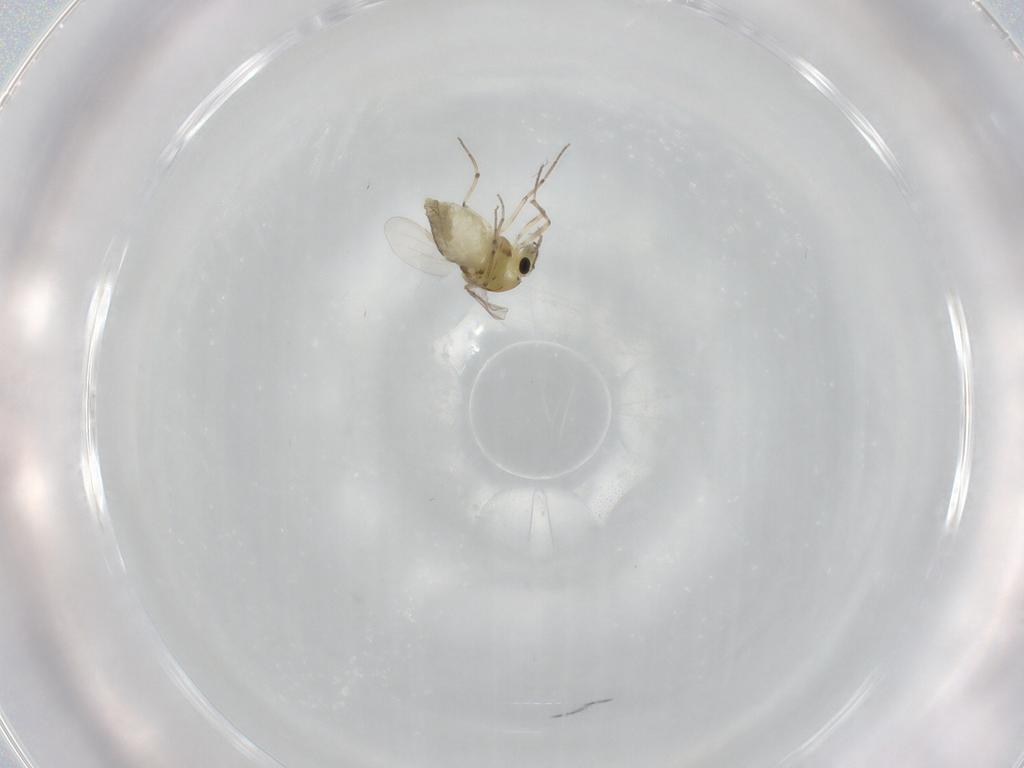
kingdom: Animalia
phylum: Arthropoda
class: Insecta
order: Diptera
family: Chironomidae
